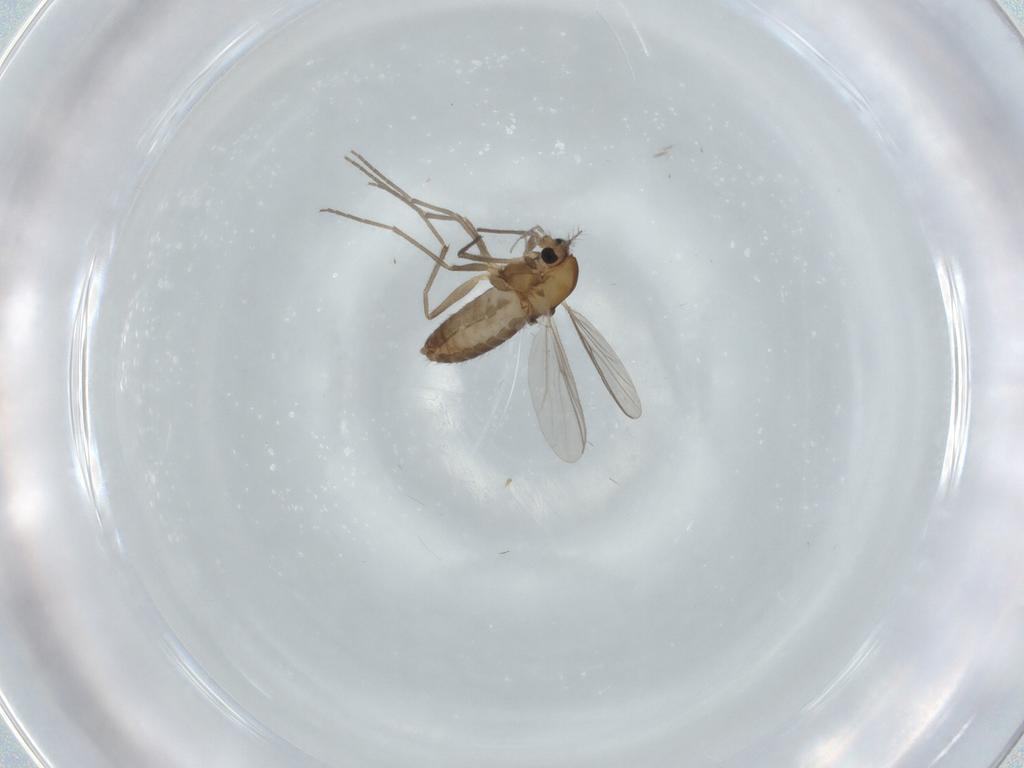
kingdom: Animalia
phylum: Arthropoda
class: Insecta
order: Diptera
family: Chironomidae
